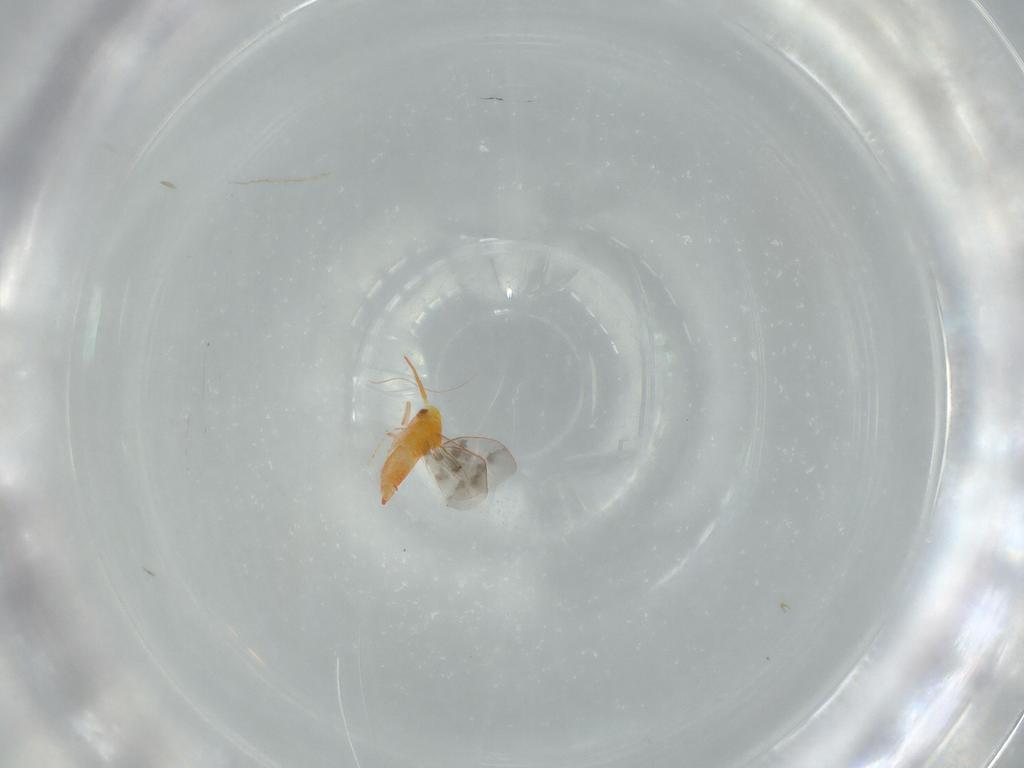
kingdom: Animalia
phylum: Arthropoda
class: Insecta
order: Hemiptera
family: Aleyrodidae
